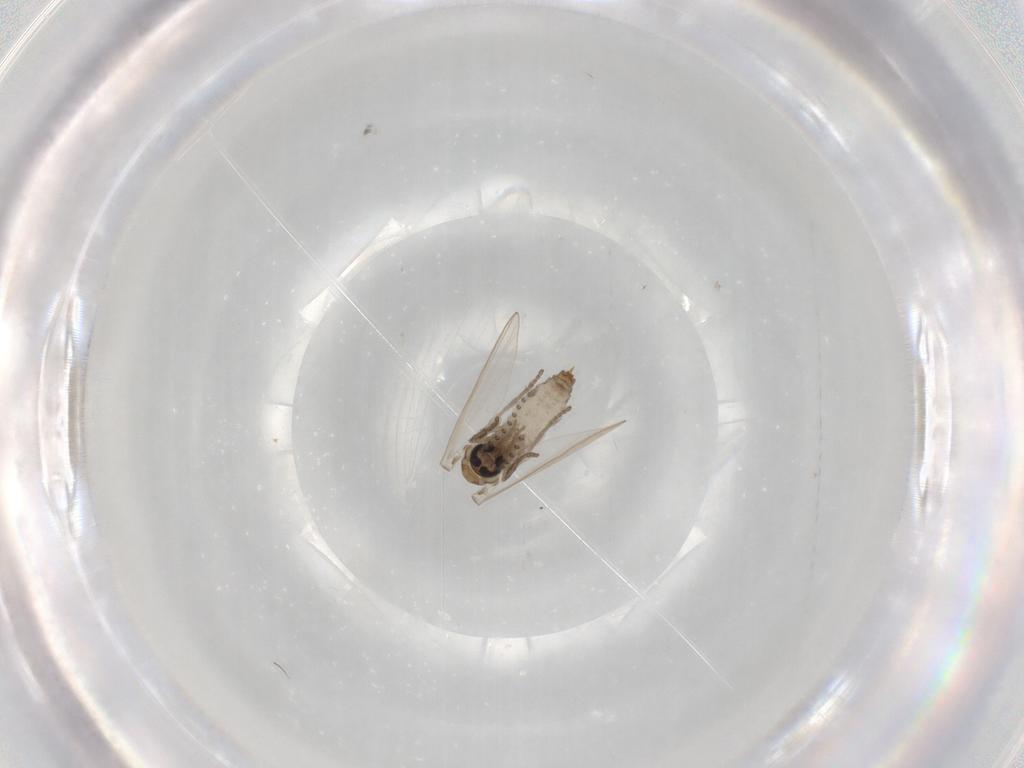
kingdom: Animalia
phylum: Arthropoda
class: Insecta
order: Diptera
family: Psychodidae
